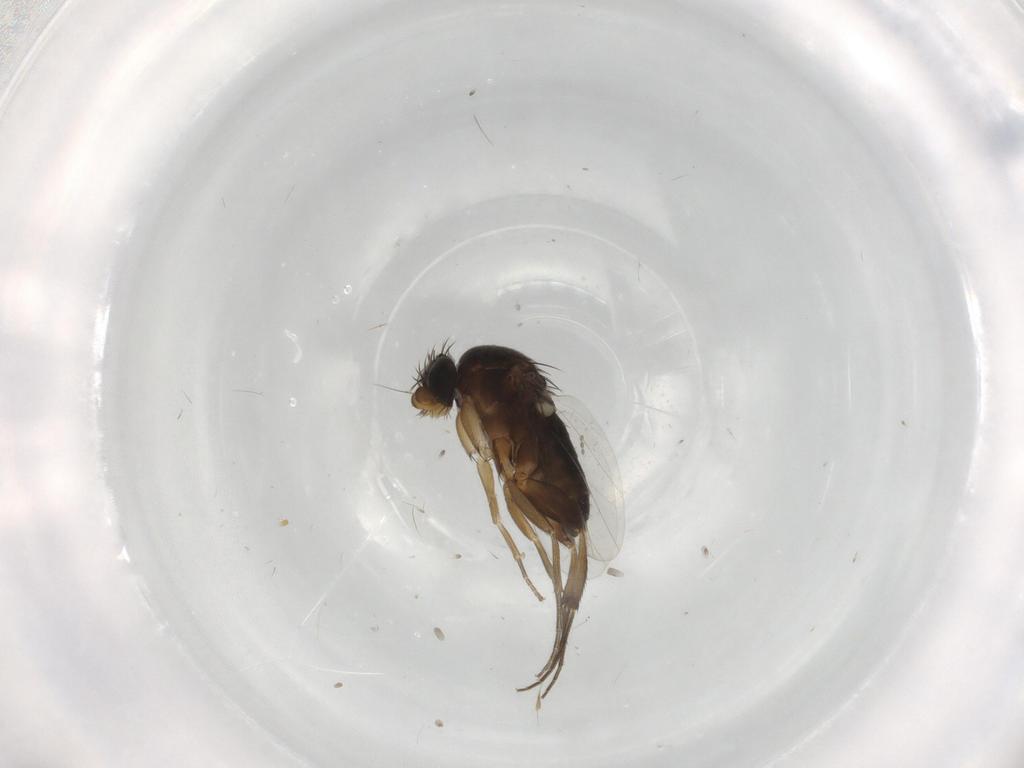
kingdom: Animalia
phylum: Arthropoda
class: Insecta
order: Diptera
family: Phoridae
